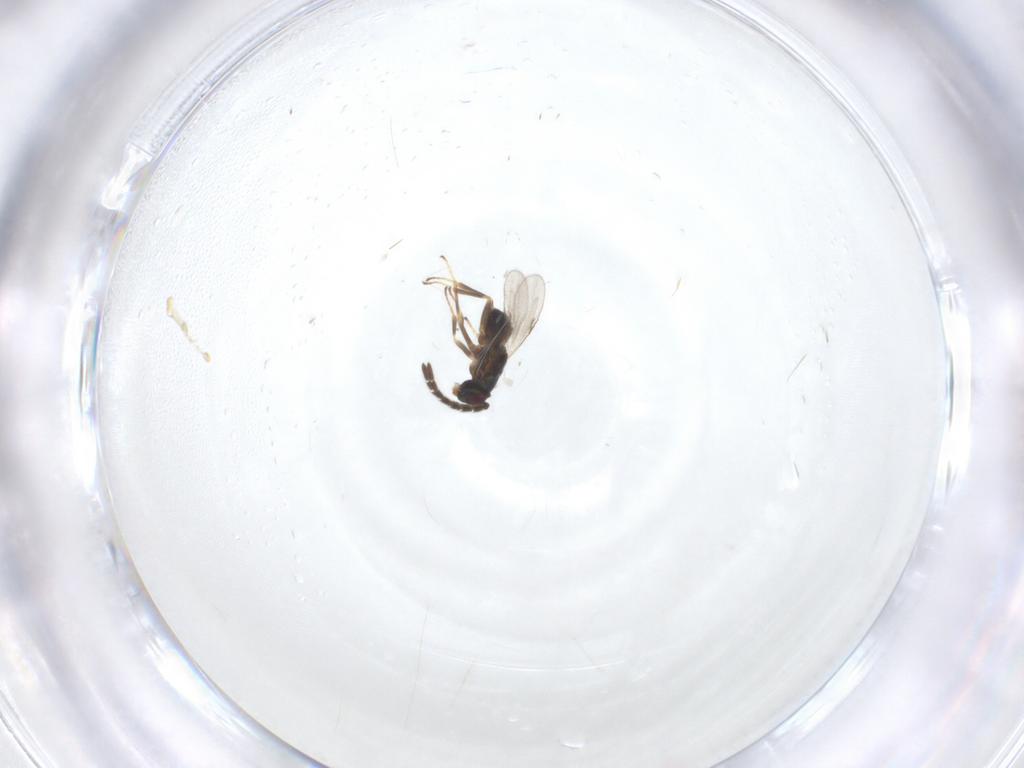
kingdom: Animalia
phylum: Arthropoda
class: Insecta
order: Hymenoptera
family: Encyrtidae
